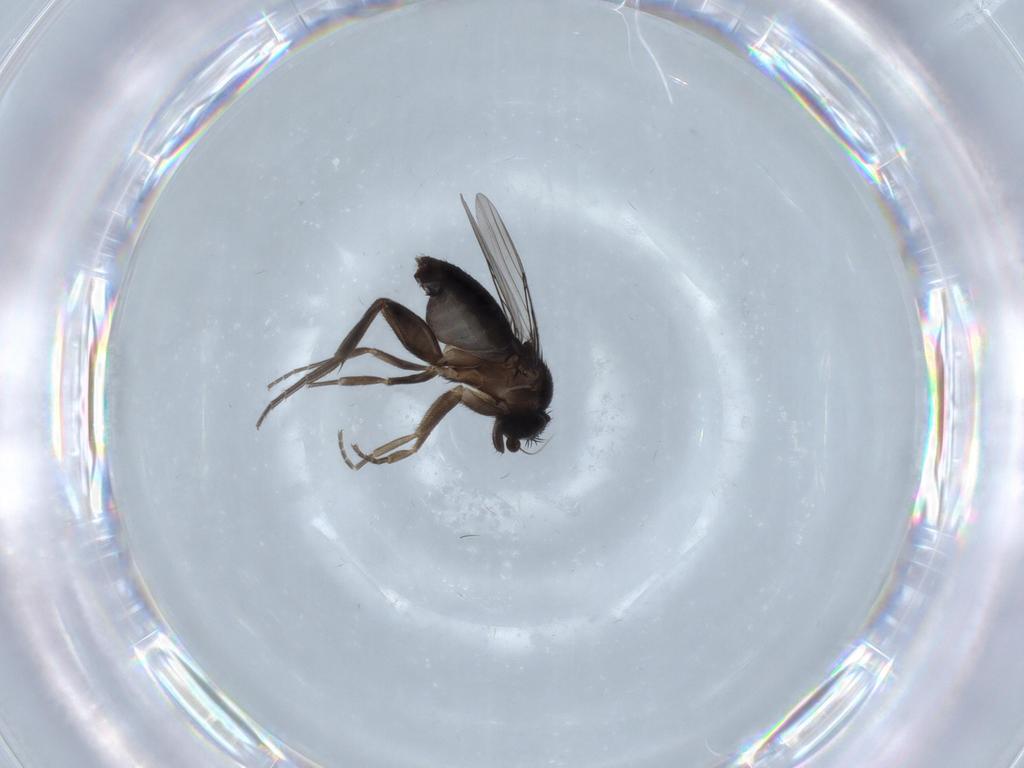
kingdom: Animalia
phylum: Arthropoda
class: Insecta
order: Diptera
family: Phoridae
